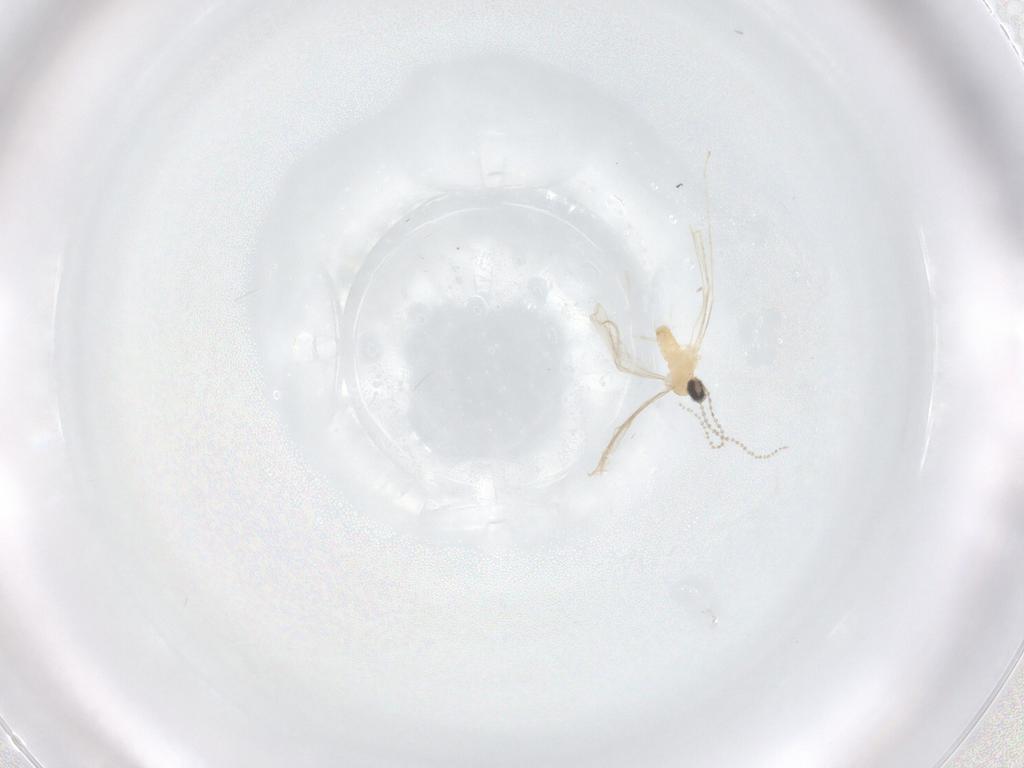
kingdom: Animalia
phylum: Arthropoda
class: Insecta
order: Diptera
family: Cecidomyiidae
